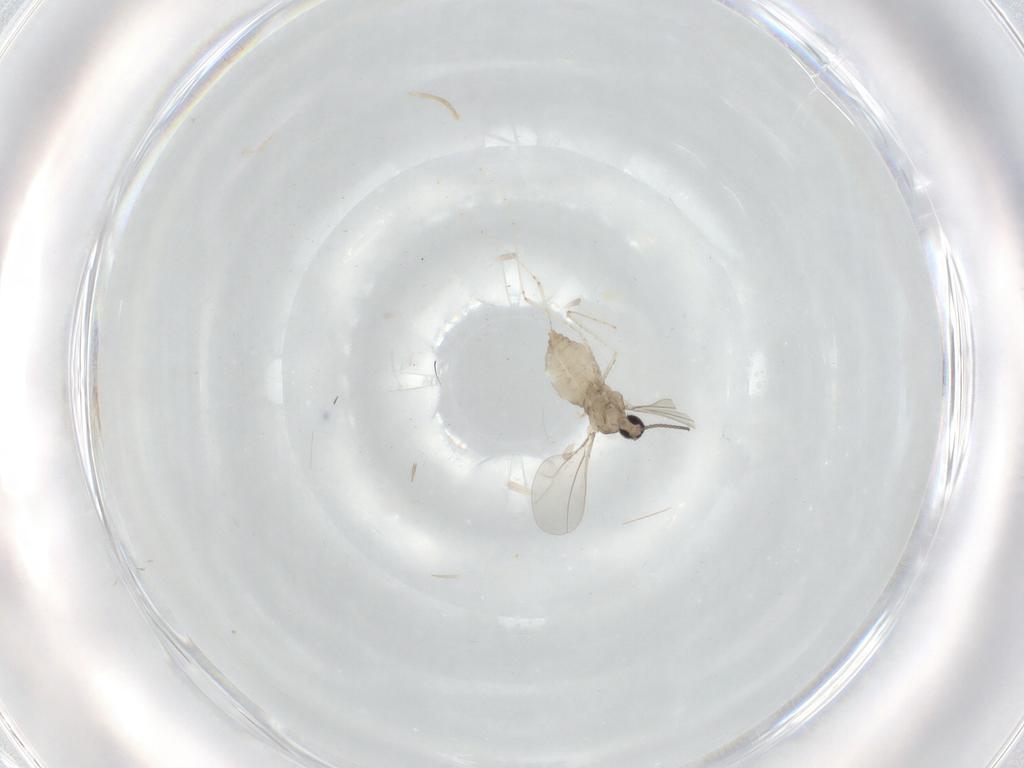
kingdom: Animalia
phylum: Arthropoda
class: Insecta
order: Diptera
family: Cecidomyiidae
